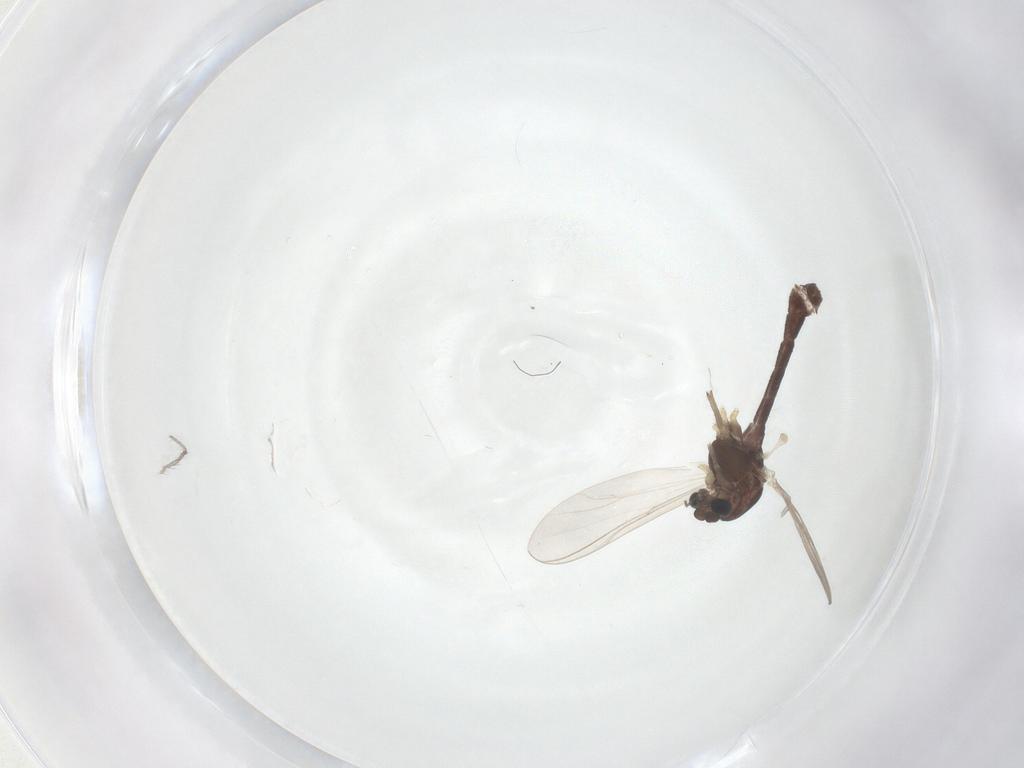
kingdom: Animalia
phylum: Arthropoda
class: Insecta
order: Diptera
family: Chironomidae
